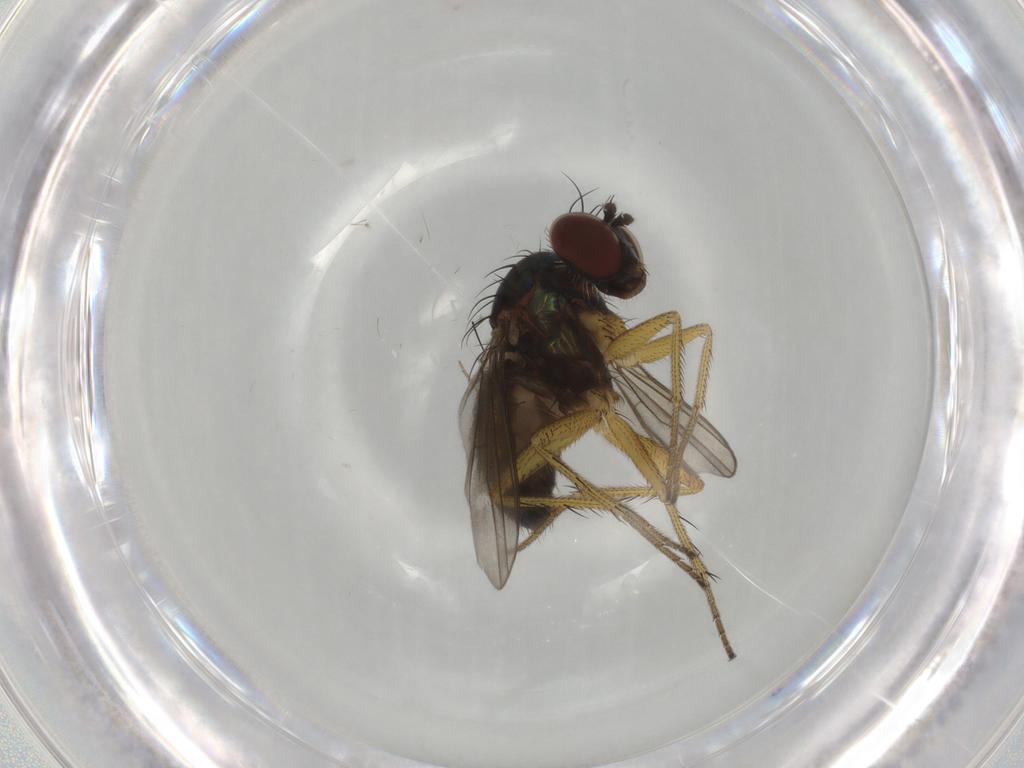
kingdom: Animalia
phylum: Arthropoda
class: Insecta
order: Diptera
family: Dolichopodidae
